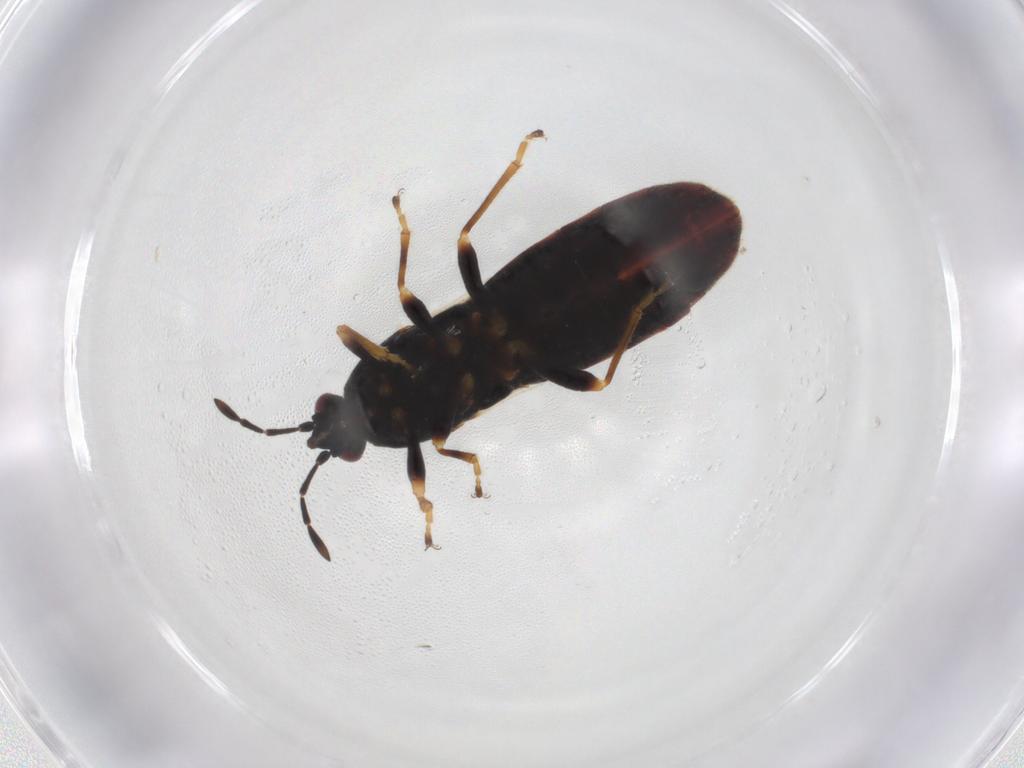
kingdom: Animalia
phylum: Arthropoda
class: Insecta
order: Hemiptera
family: Blissidae
